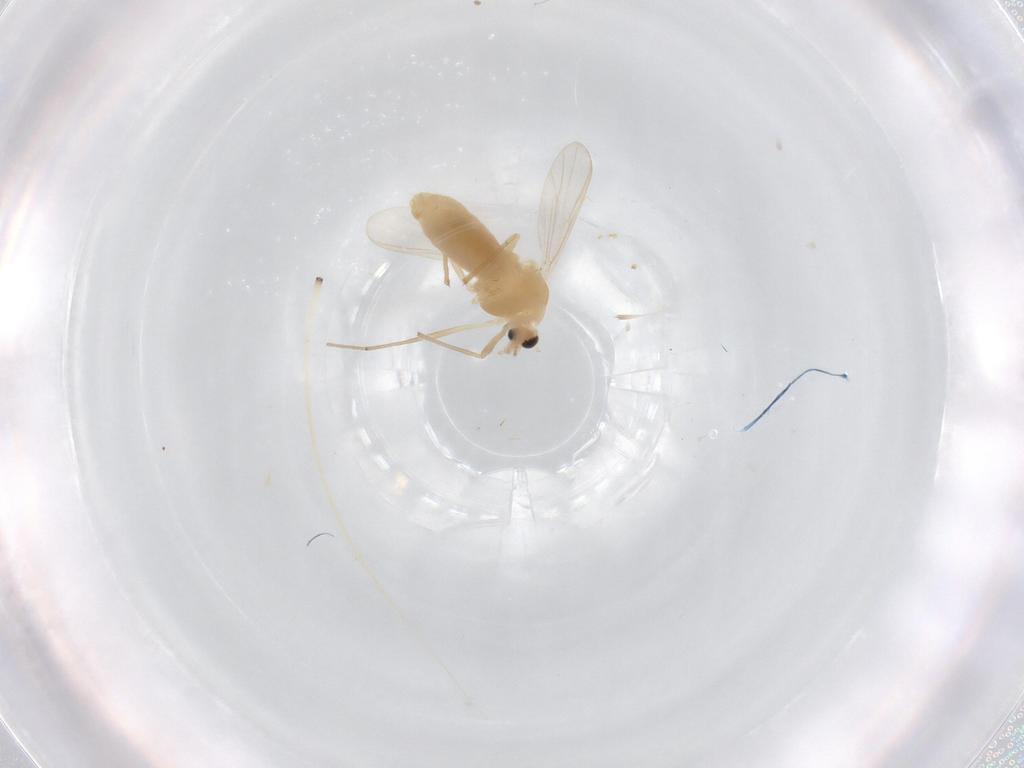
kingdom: Animalia
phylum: Arthropoda
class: Insecta
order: Diptera
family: Chironomidae
